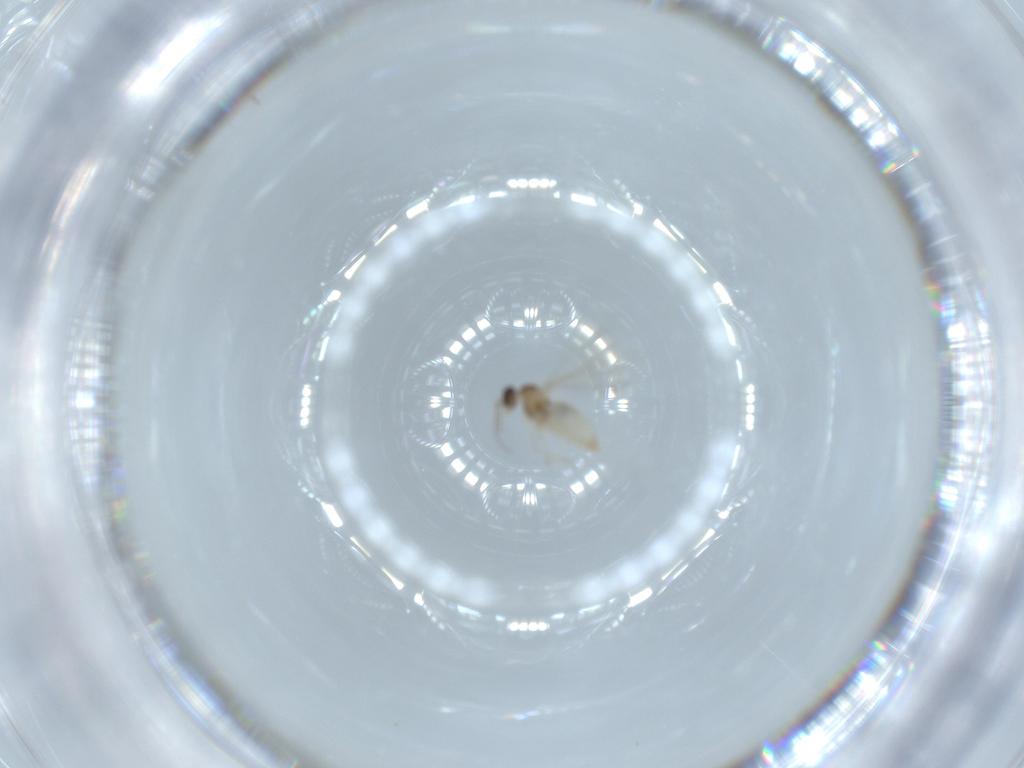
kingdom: Animalia
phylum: Arthropoda
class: Insecta
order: Diptera
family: Cecidomyiidae
